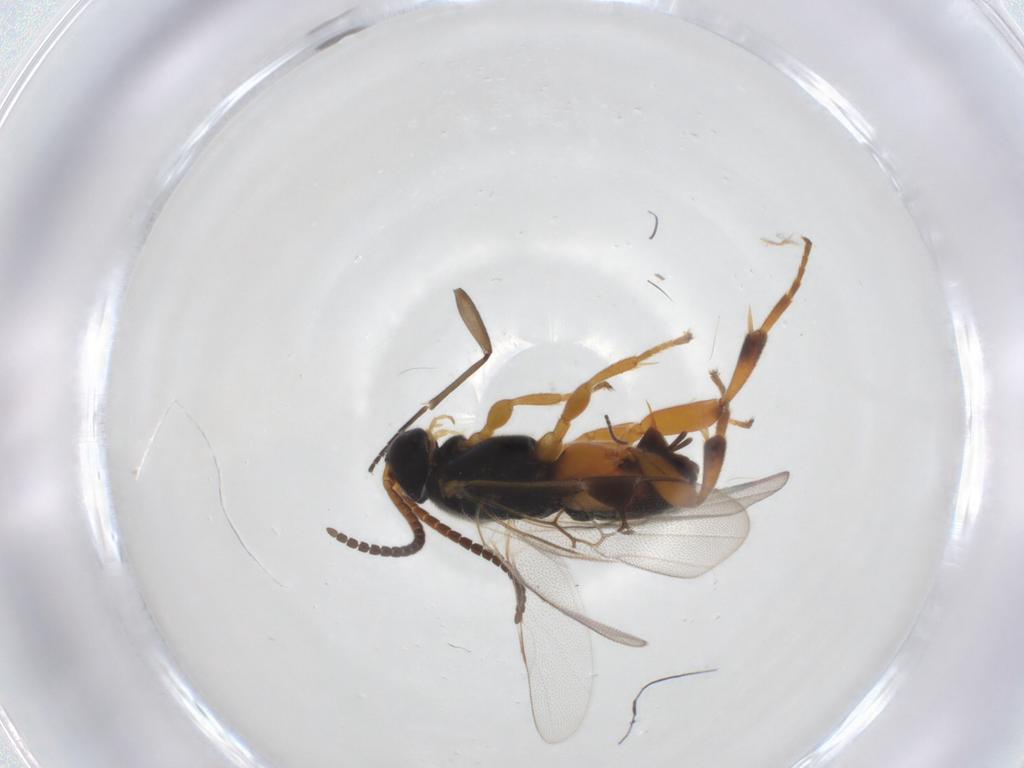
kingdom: Animalia
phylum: Arthropoda
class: Insecta
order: Hymenoptera
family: Braconidae
